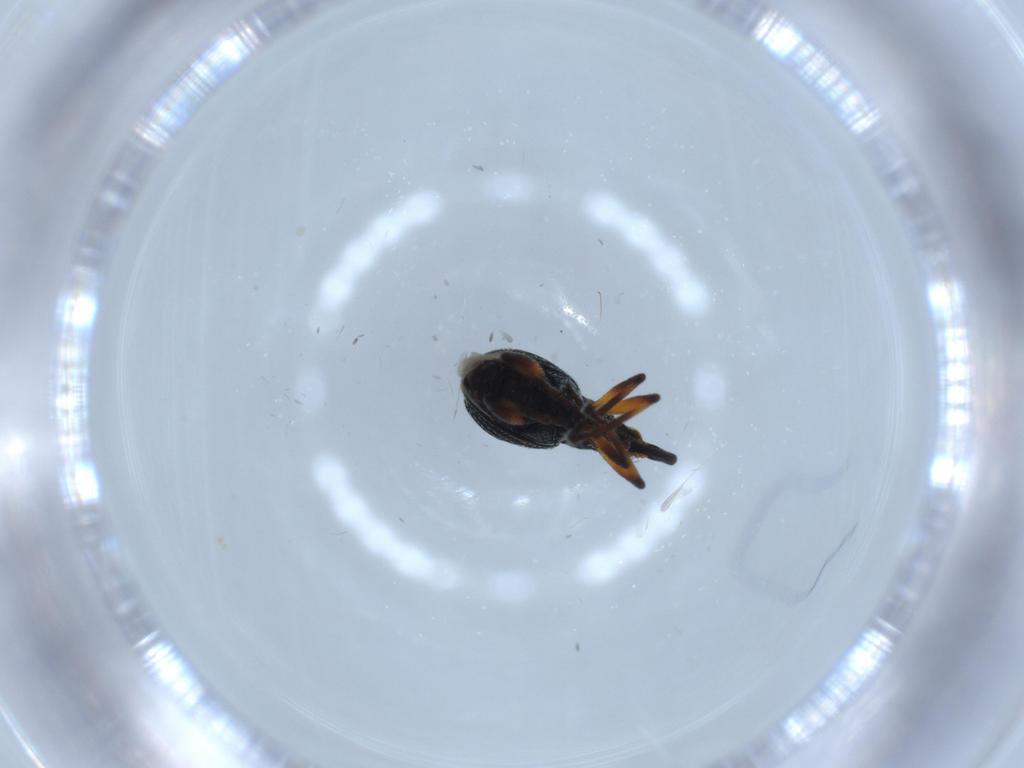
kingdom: Animalia
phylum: Arthropoda
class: Insecta
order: Coleoptera
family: Brentidae
